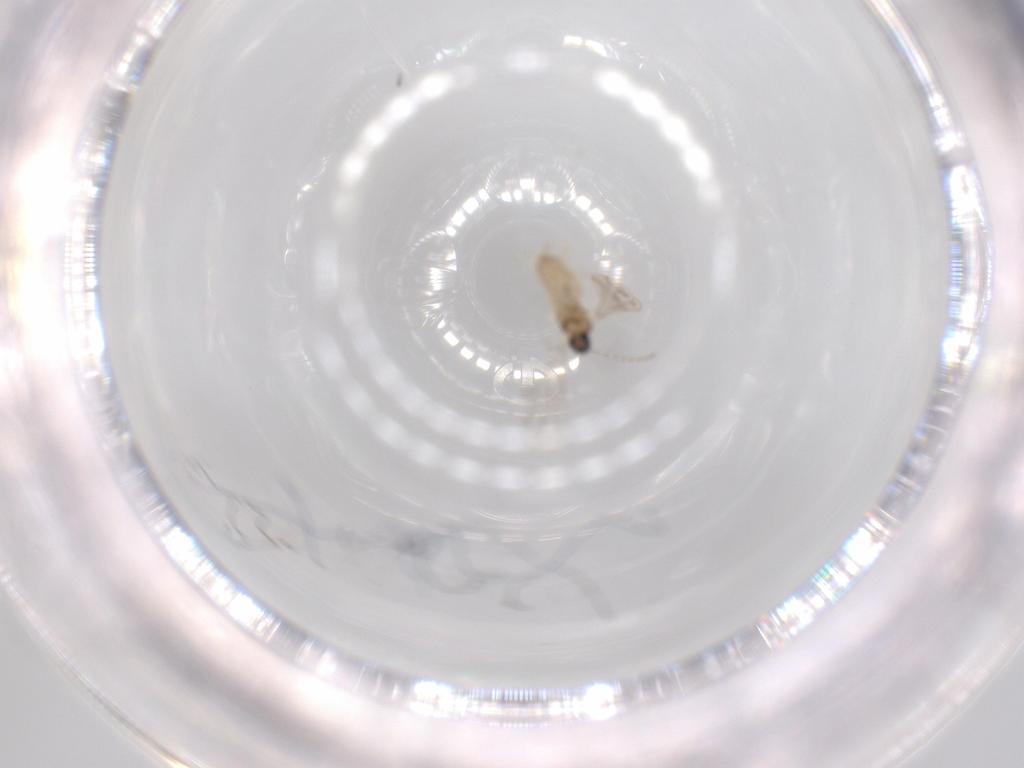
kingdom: Animalia
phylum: Arthropoda
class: Insecta
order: Diptera
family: Cecidomyiidae
